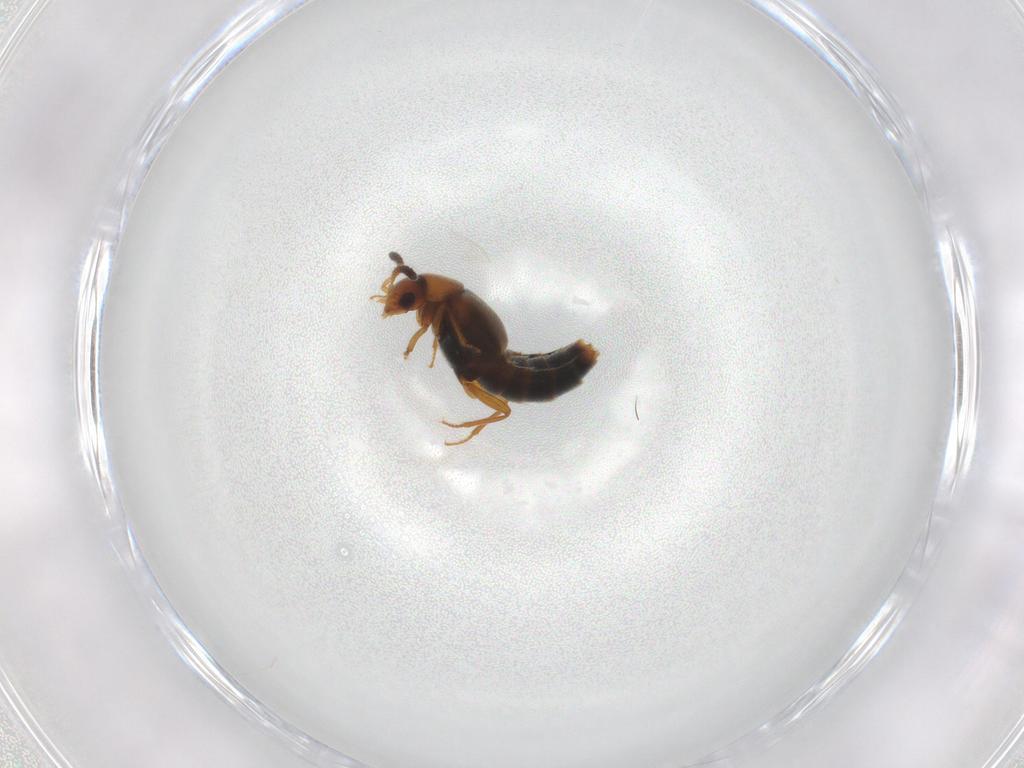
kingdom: Animalia
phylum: Arthropoda
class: Insecta
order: Coleoptera
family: Staphylinidae
